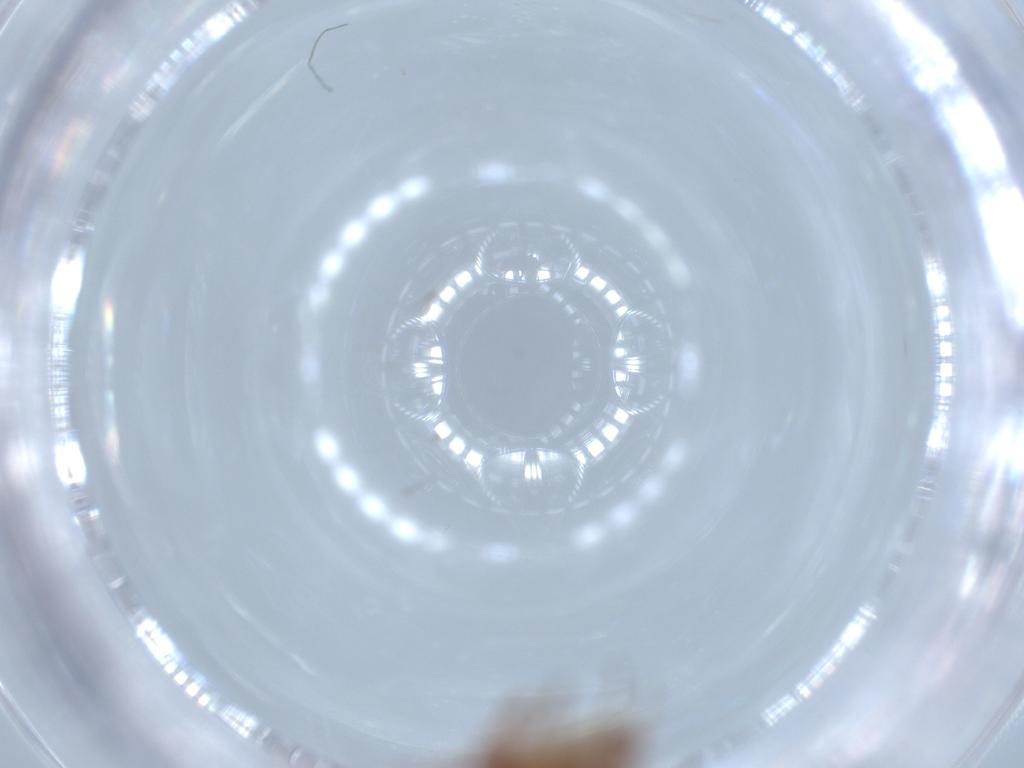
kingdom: Animalia
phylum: Arthropoda
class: Insecta
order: Hemiptera
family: Miridae
